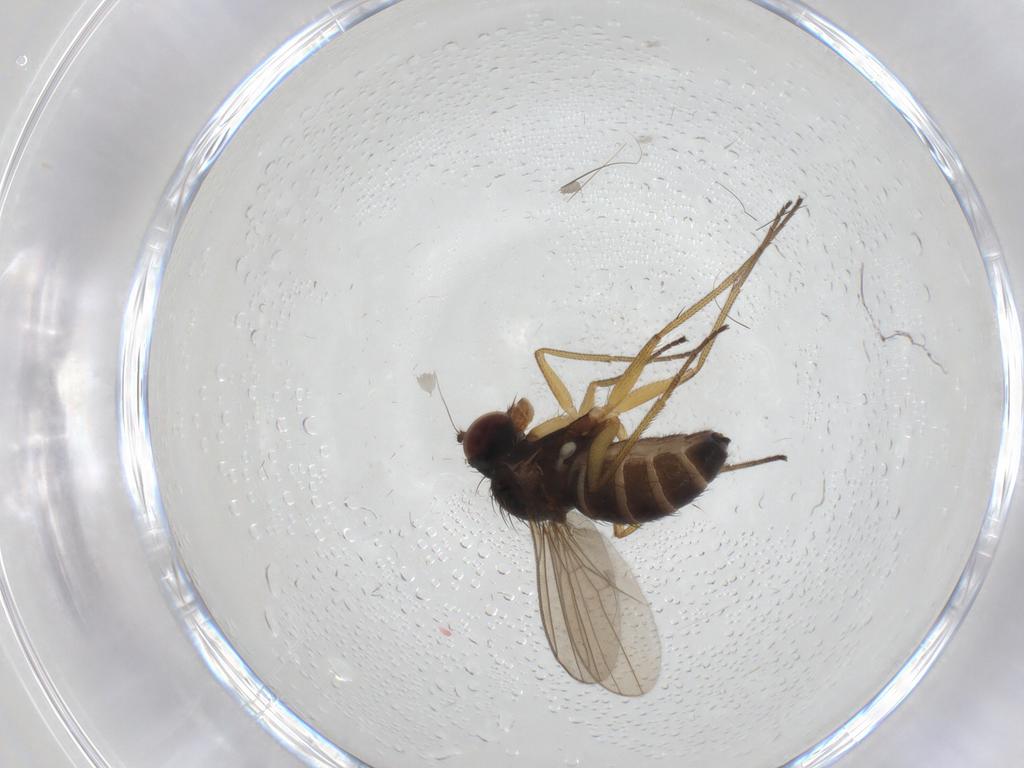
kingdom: Animalia
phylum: Arthropoda
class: Insecta
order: Diptera
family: Dolichopodidae
